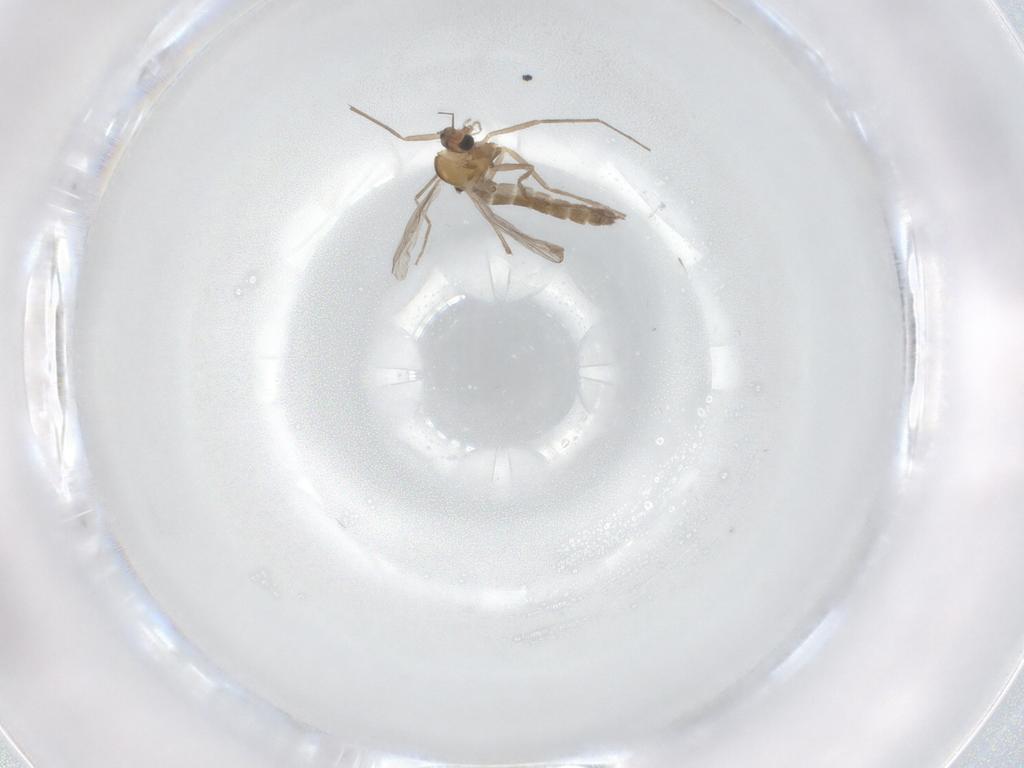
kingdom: Animalia
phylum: Arthropoda
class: Insecta
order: Diptera
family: Chironomidae
